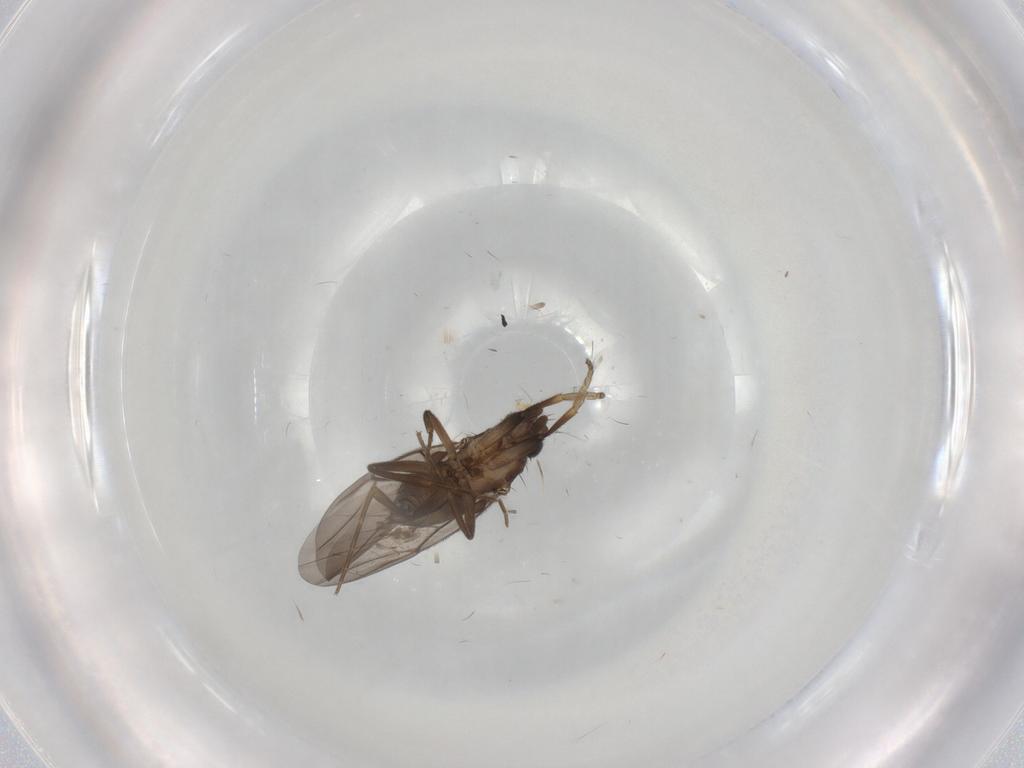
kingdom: Animalia
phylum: Arthropoda
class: Insecta
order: Diptera
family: Phoridae
